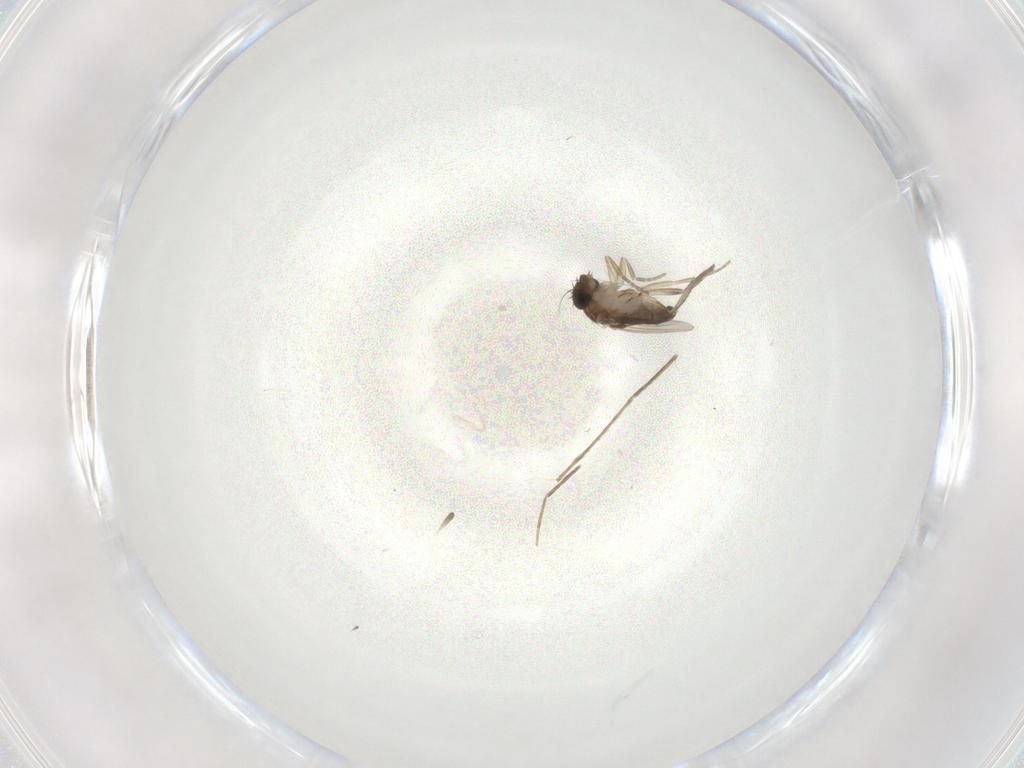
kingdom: Animalia
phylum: Arthropoda
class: Insecta
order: Diptera
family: Phoridae
